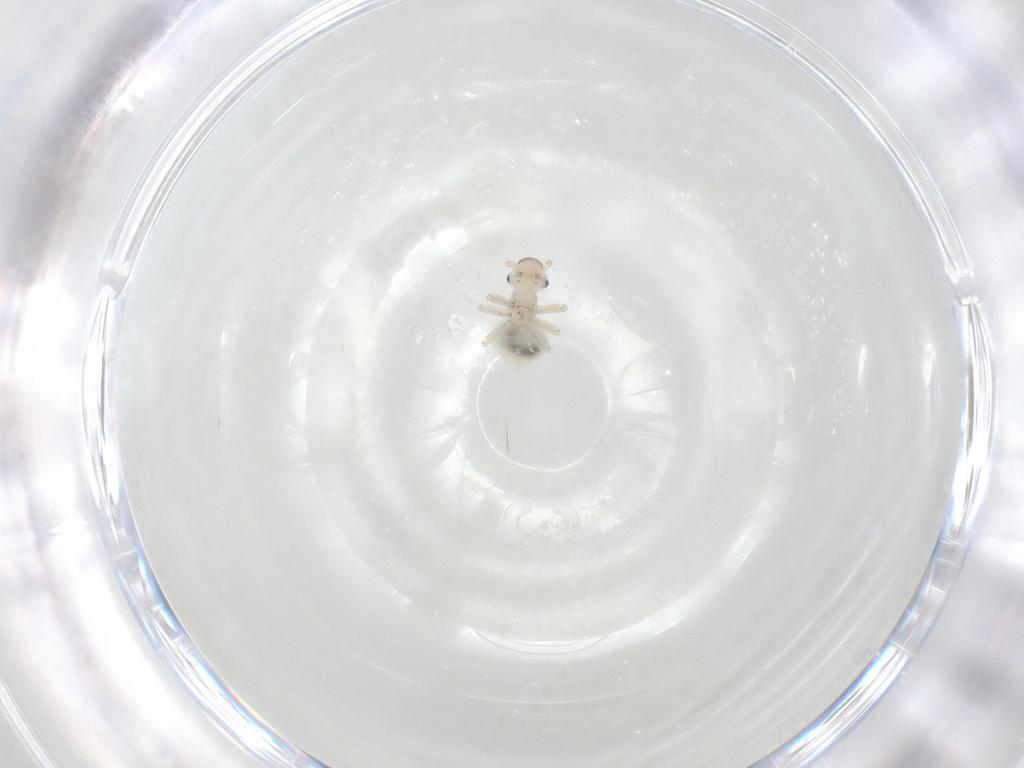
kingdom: Animalia
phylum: Arthropoda
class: Insecta
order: Psocodea
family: Amphipsocidae
